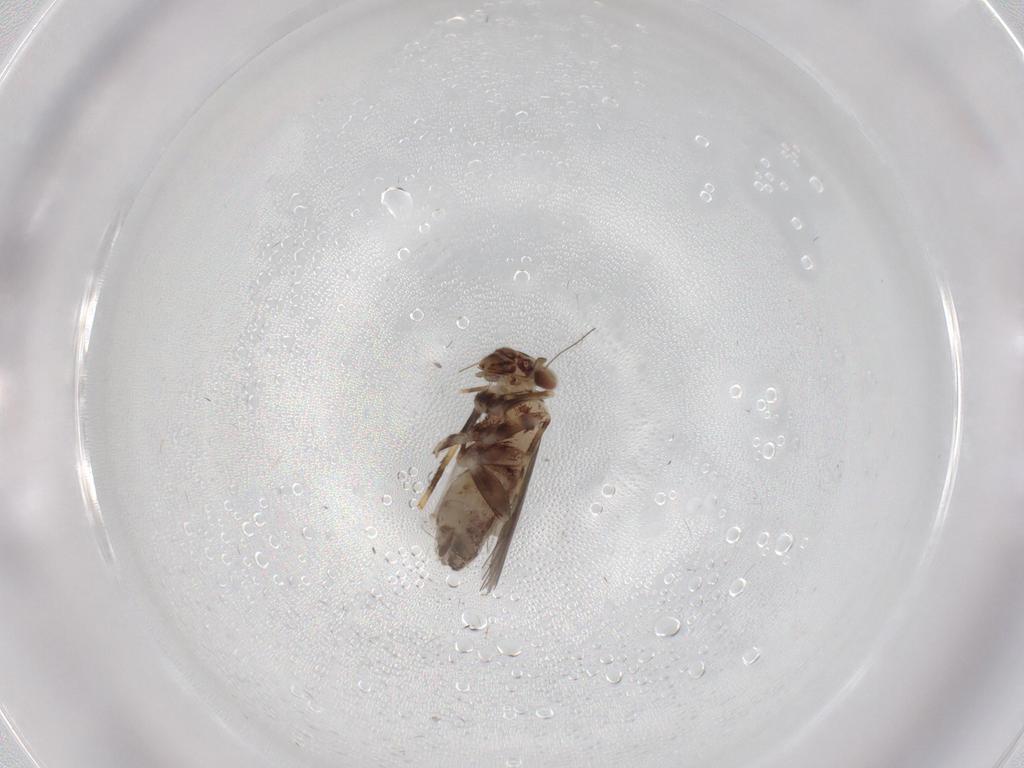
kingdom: Animalia
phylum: Arthropoda
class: Insecta
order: Psocodea
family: Lepidopsocidae
